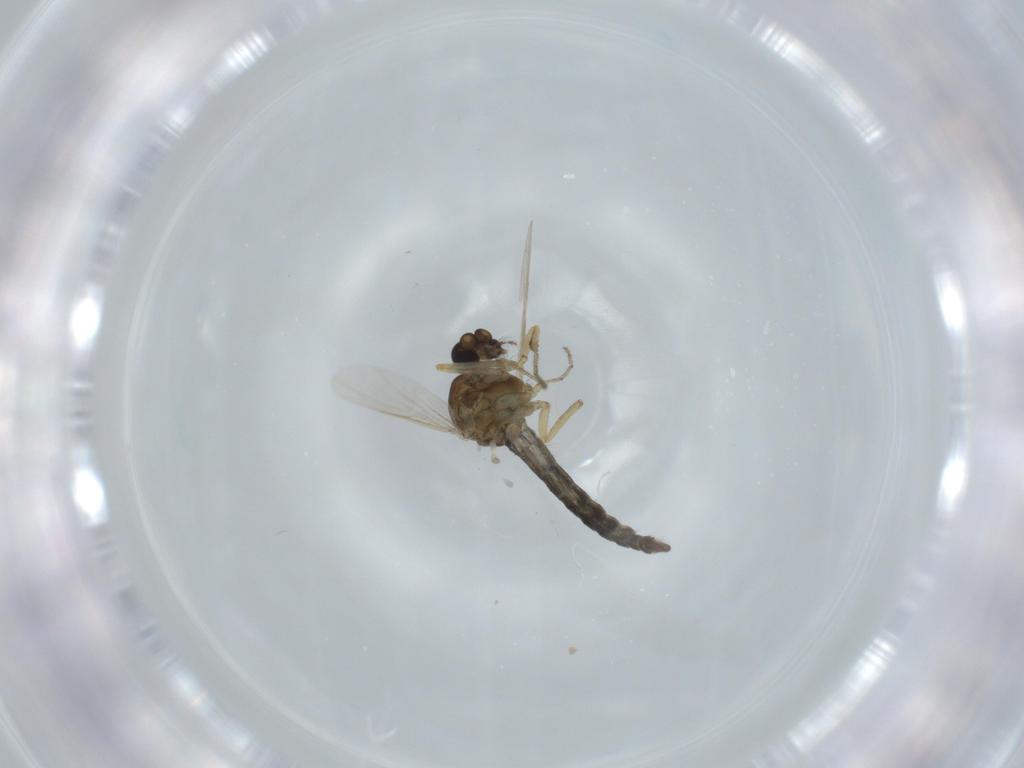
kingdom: Animalia
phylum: Arthropoda
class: Insecta
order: Diptera
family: Ceratopogonidae
